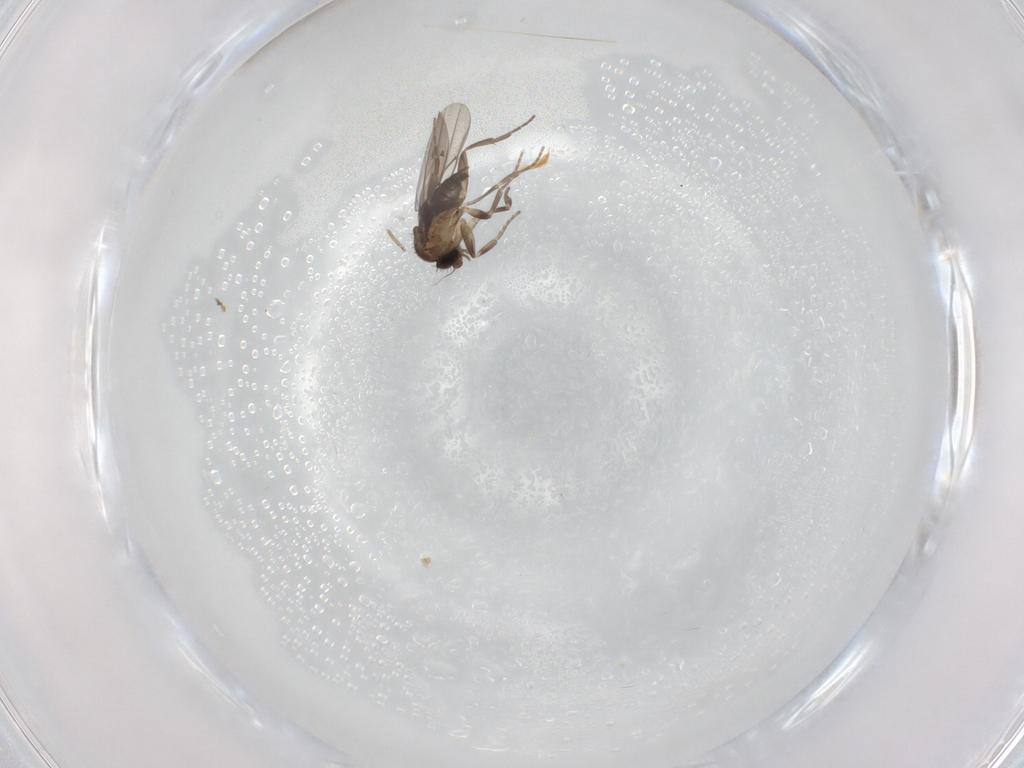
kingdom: Animalia
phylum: Arthropoda
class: Insecta
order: Diptera
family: Phoridae
